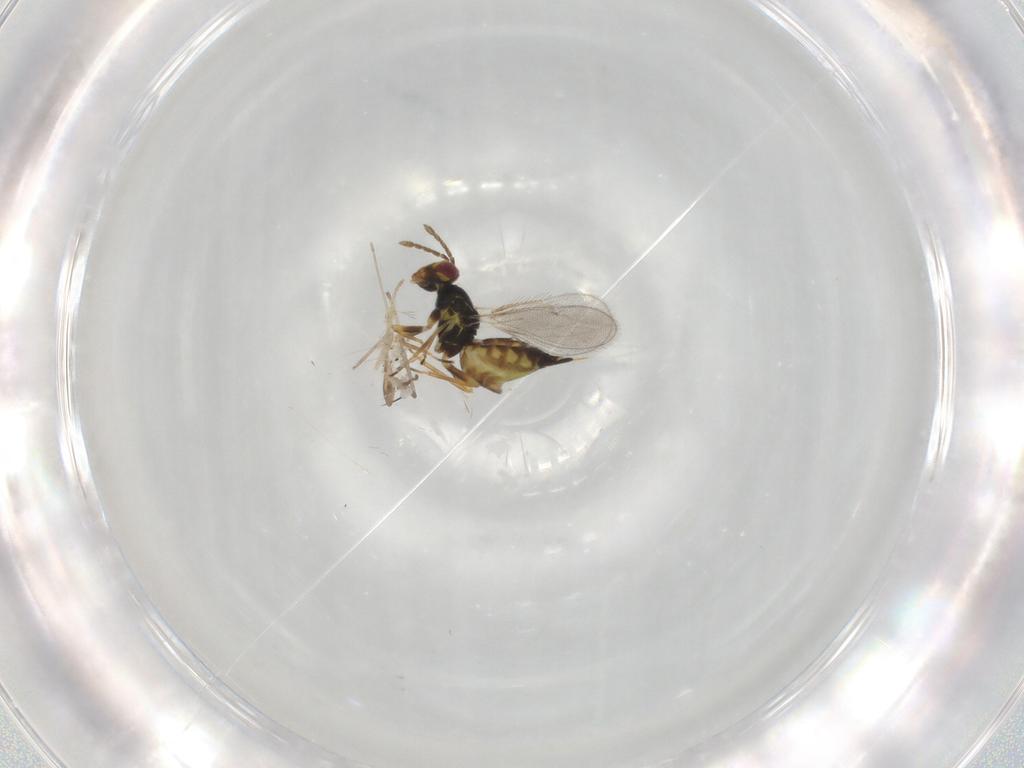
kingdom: Animalia
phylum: Arthropoda
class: Insecta
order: Hymenoptera
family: Eulophidae
